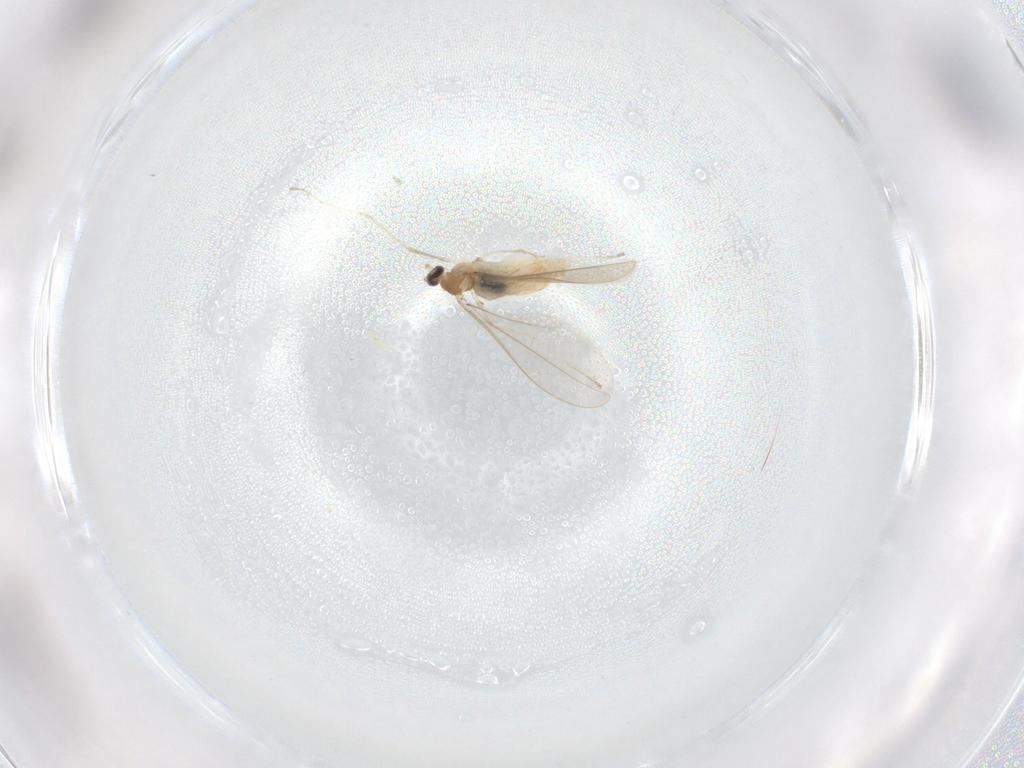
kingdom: Animalia
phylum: Arthropoda
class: Insecta
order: Diptera
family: Cecidomyiidae
